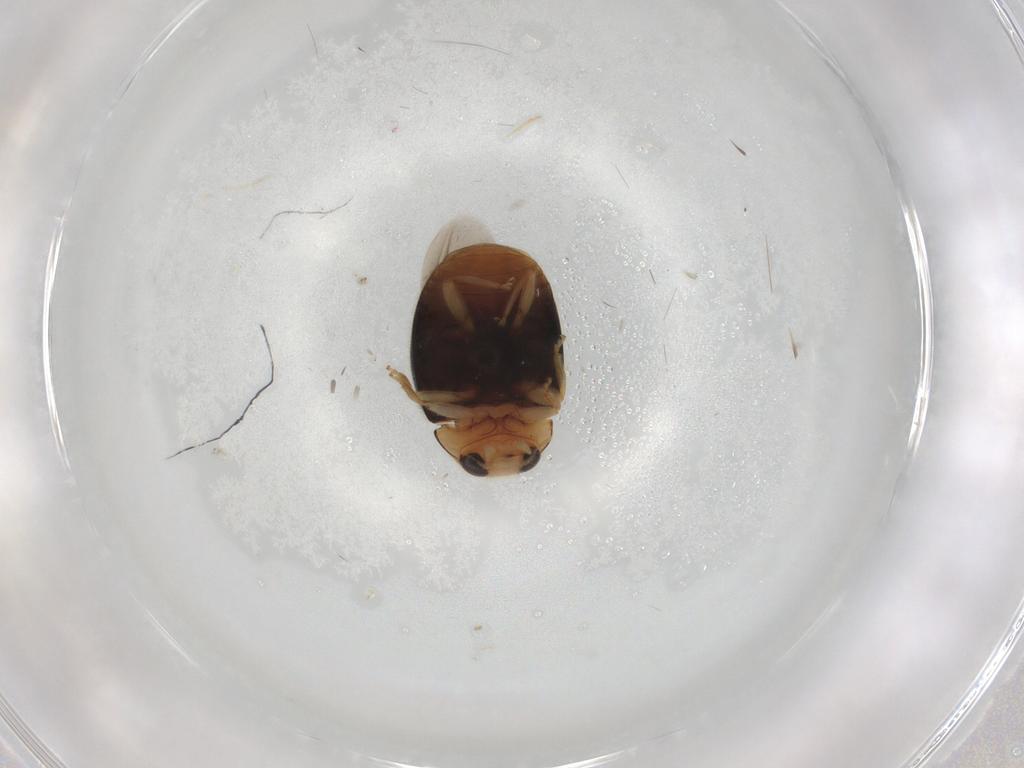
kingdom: Animalia
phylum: Arthropoda
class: Insecta
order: Coleoptera
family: Coccinellidae
